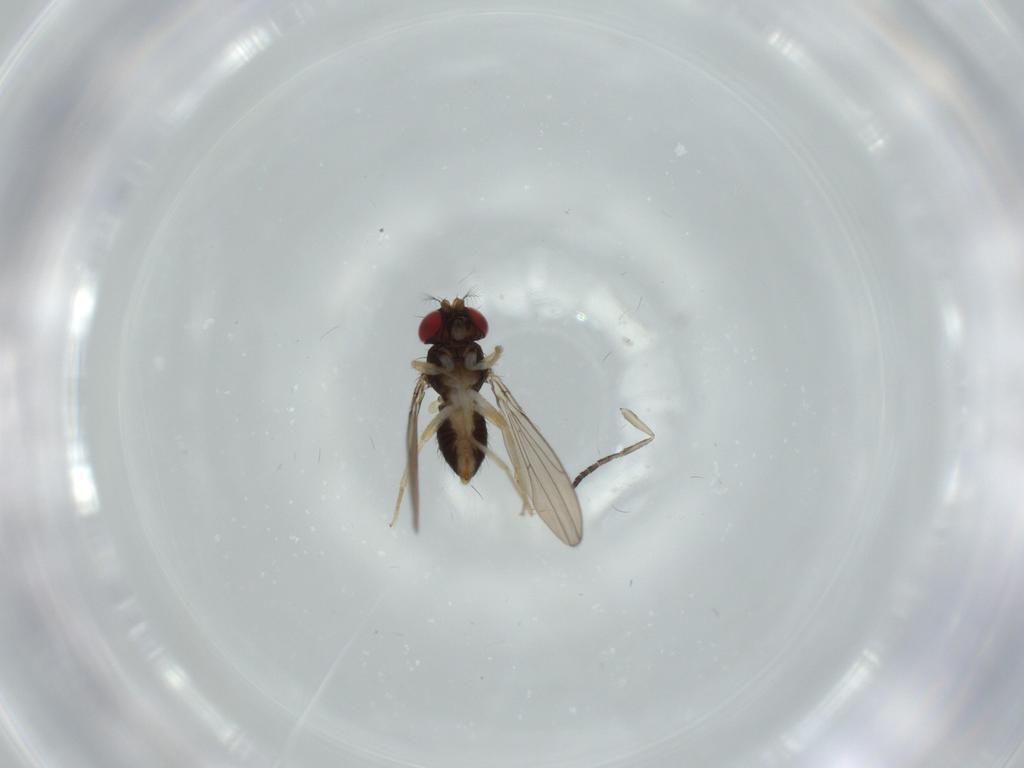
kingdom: Animalia
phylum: Arthropoda
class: Insecta
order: Diptera
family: Drosophilidae
